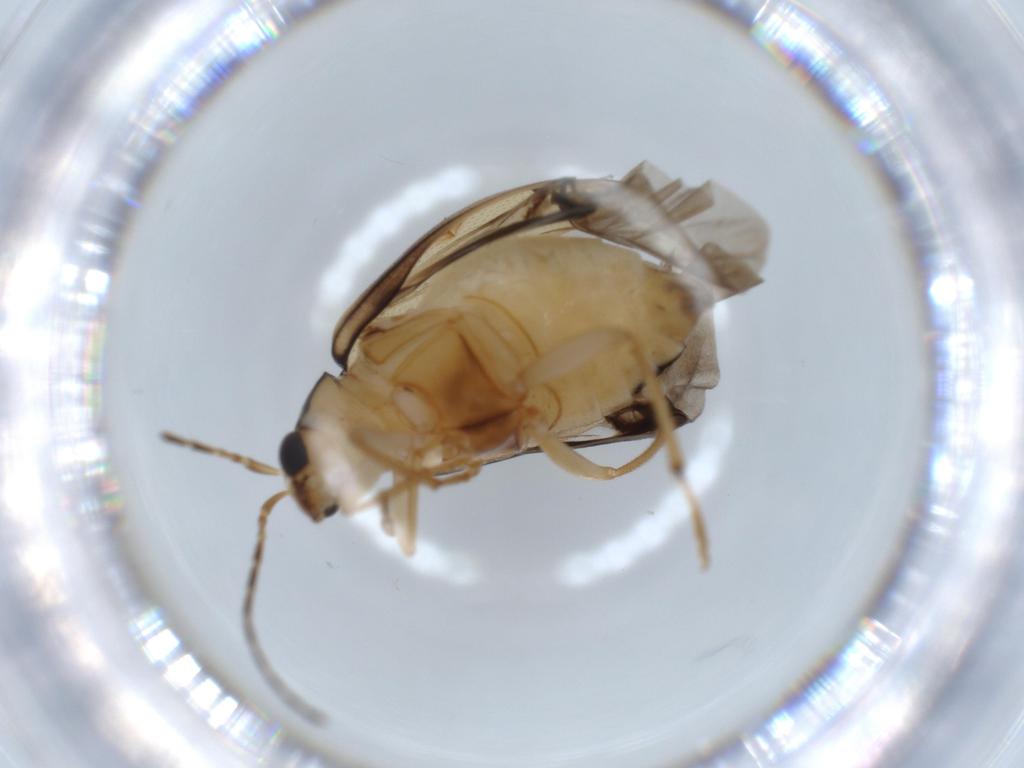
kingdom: Animalia
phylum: Arthropoda
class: Insecta
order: Coleoptera
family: Chrysomelidae
